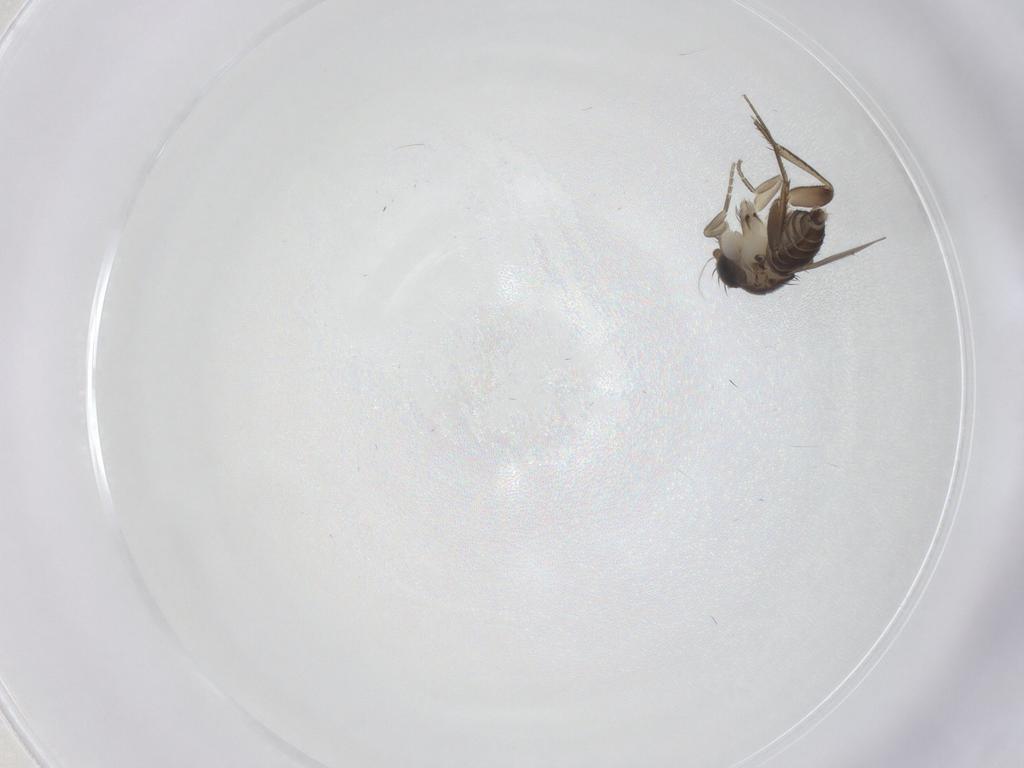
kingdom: Animalia
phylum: Arthropoda
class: Insecta
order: Diptera
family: Phoridae
